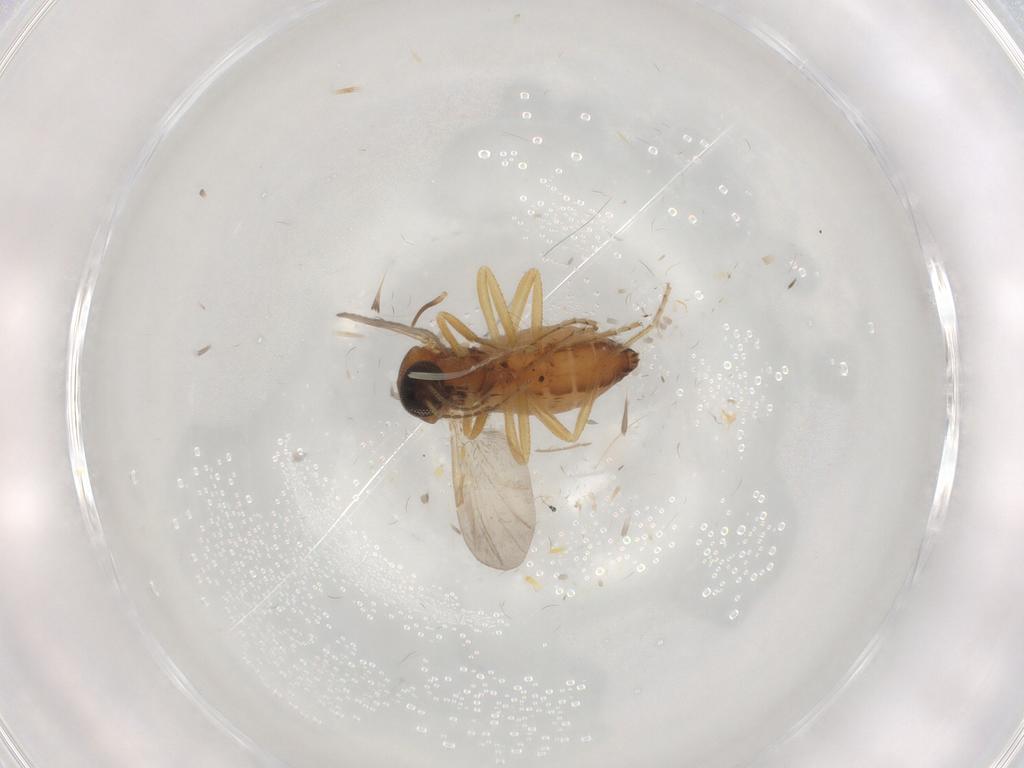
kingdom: Animalia
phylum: Arthropoda
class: Insecta
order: Diptera
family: Ceratopogonidae
